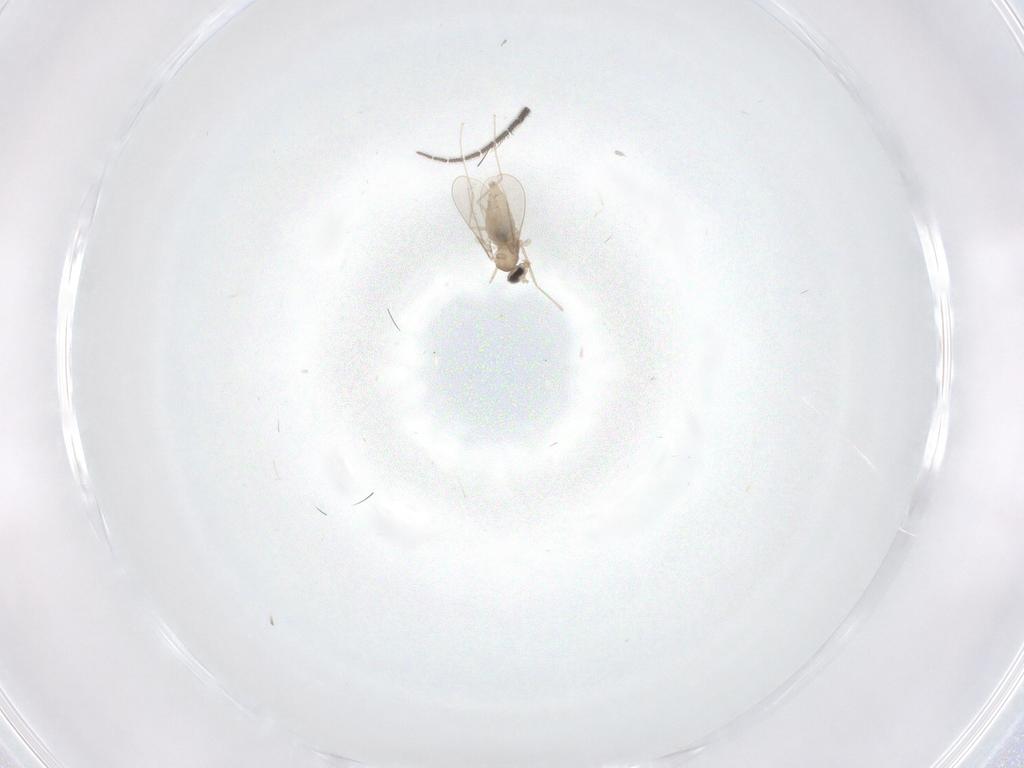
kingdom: Animalia
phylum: Arthropoda
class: Insecta
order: Diptera
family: Cecidomyiidae
